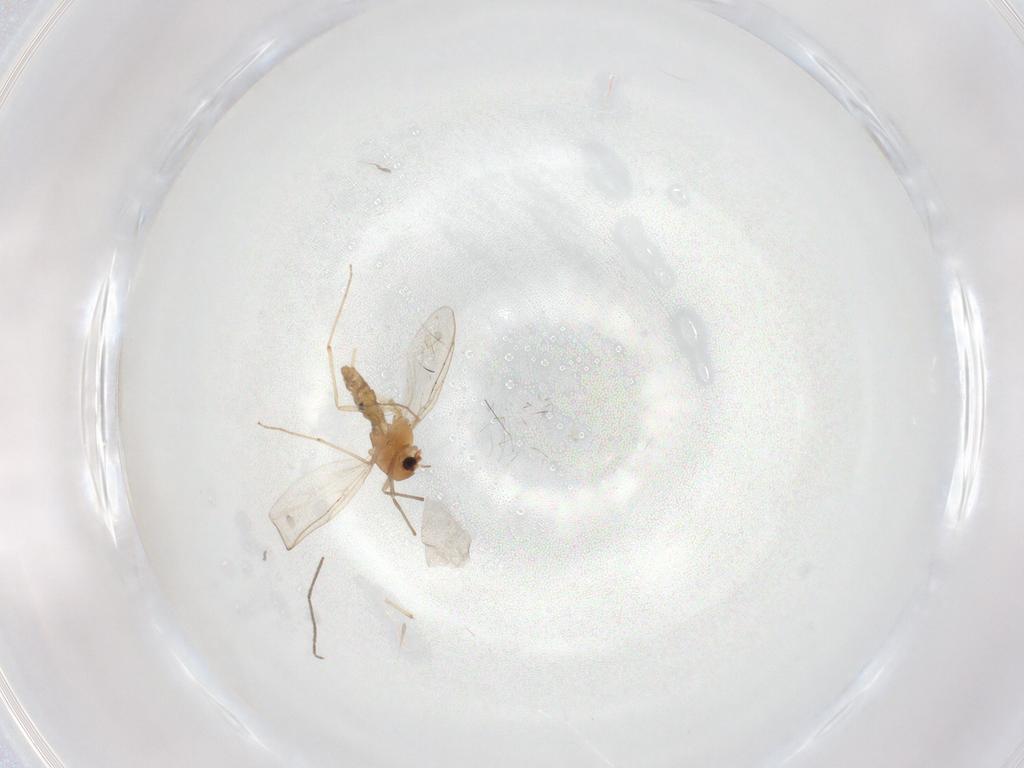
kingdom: Animalia
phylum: Arthropoda
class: Insecta
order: Diptera
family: Chironomidae
